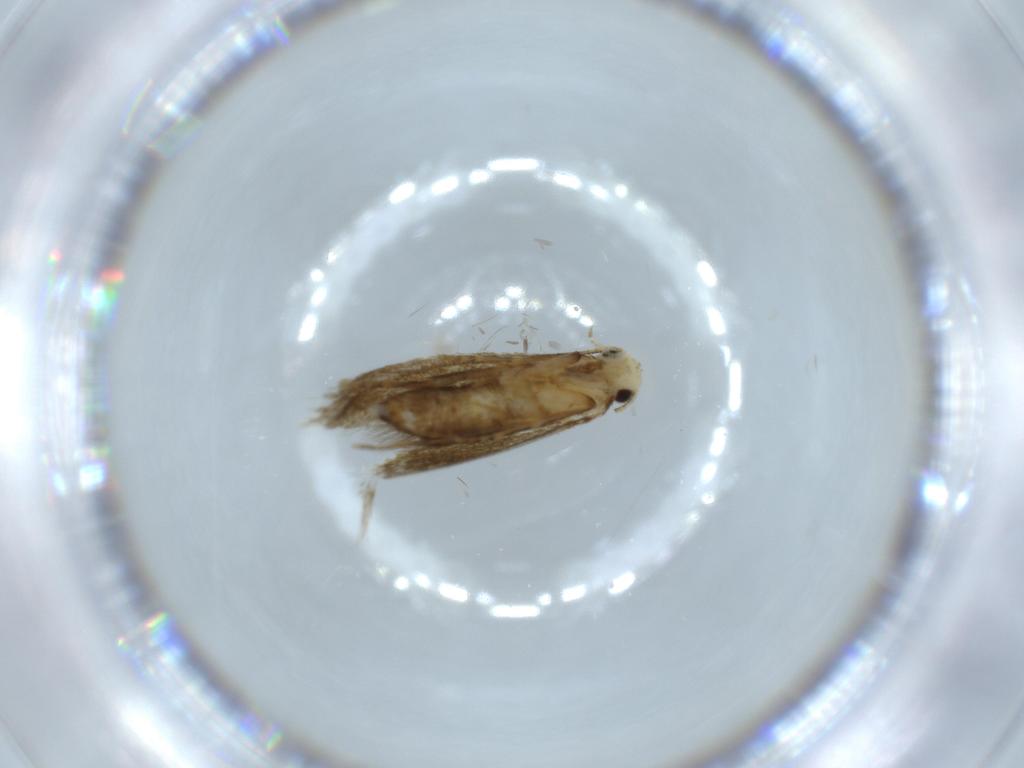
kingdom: Animalia
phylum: Arthropoda
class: Insecta
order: Lepidoptera
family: Tineidae
